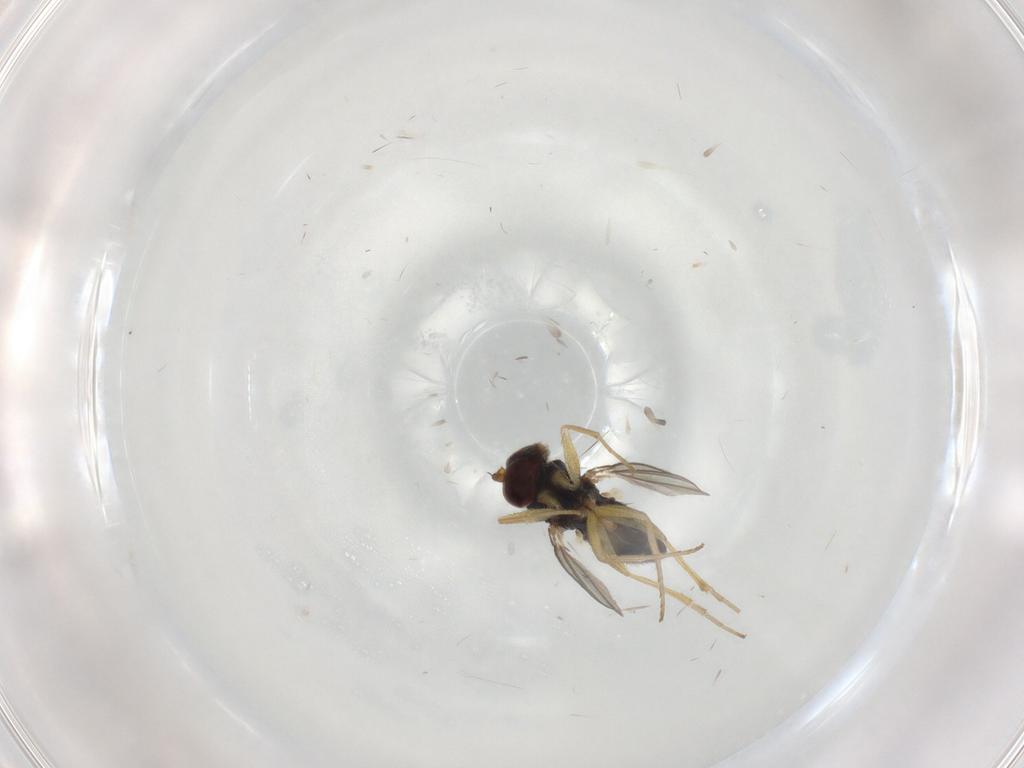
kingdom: Animalia
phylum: Arthropoda
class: Insecta
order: Diptera
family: Dolichopodidae
